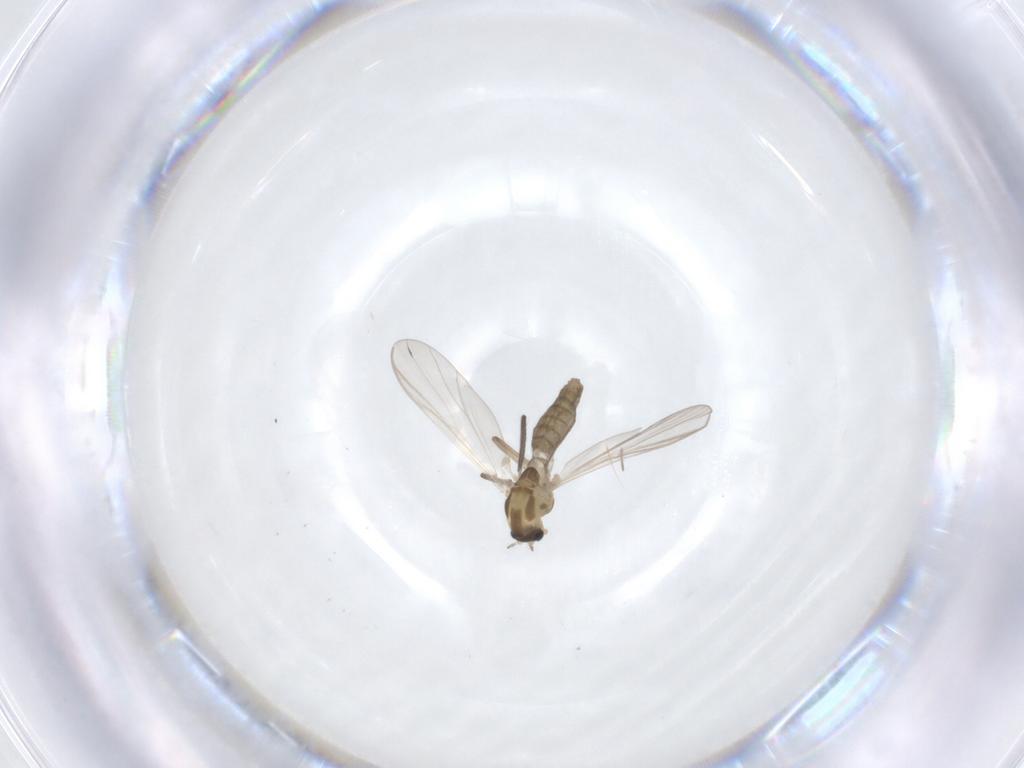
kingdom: Animalia
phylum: Arthropoda
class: Insecta
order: Diptera
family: Chironomidae
